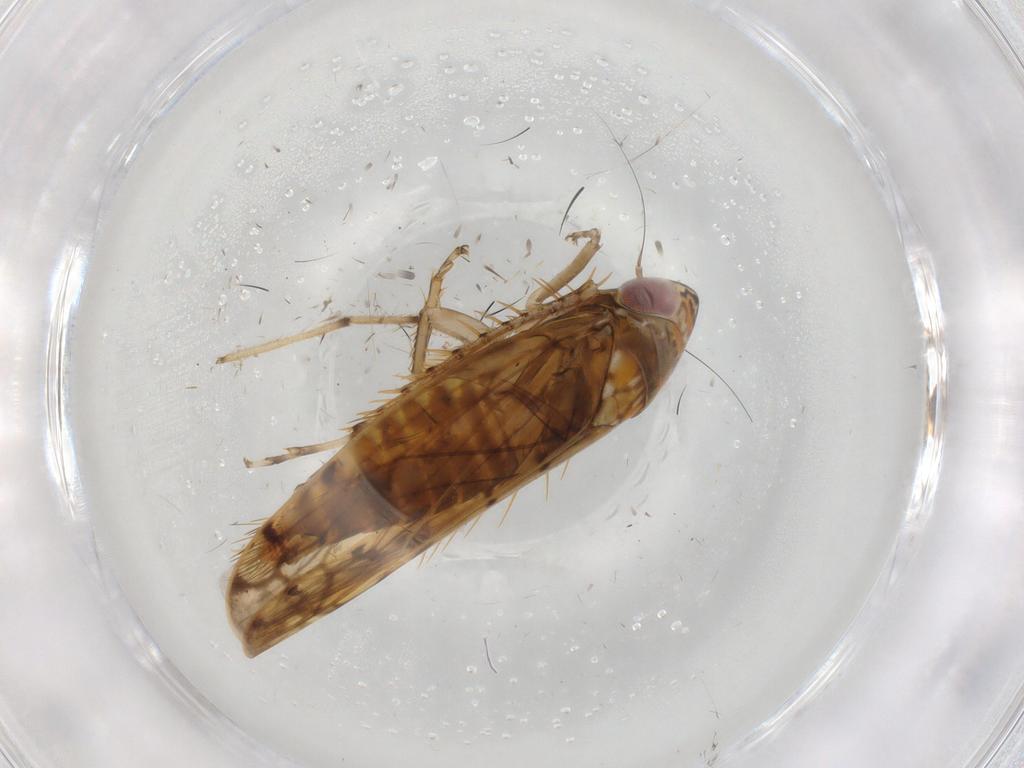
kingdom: Animalia
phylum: Arthropoda
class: Insecta
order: Hemiptera
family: Cicadellidae
